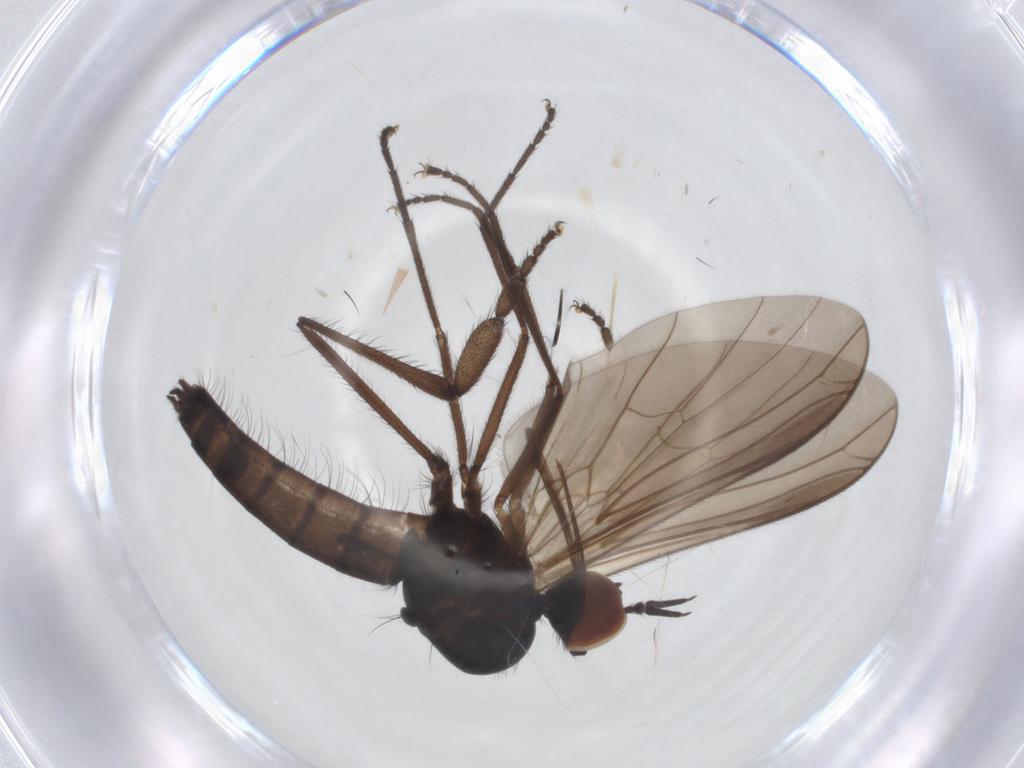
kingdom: Animalia
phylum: Arthropoda
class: Insecta
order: Diptera
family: Empididae
